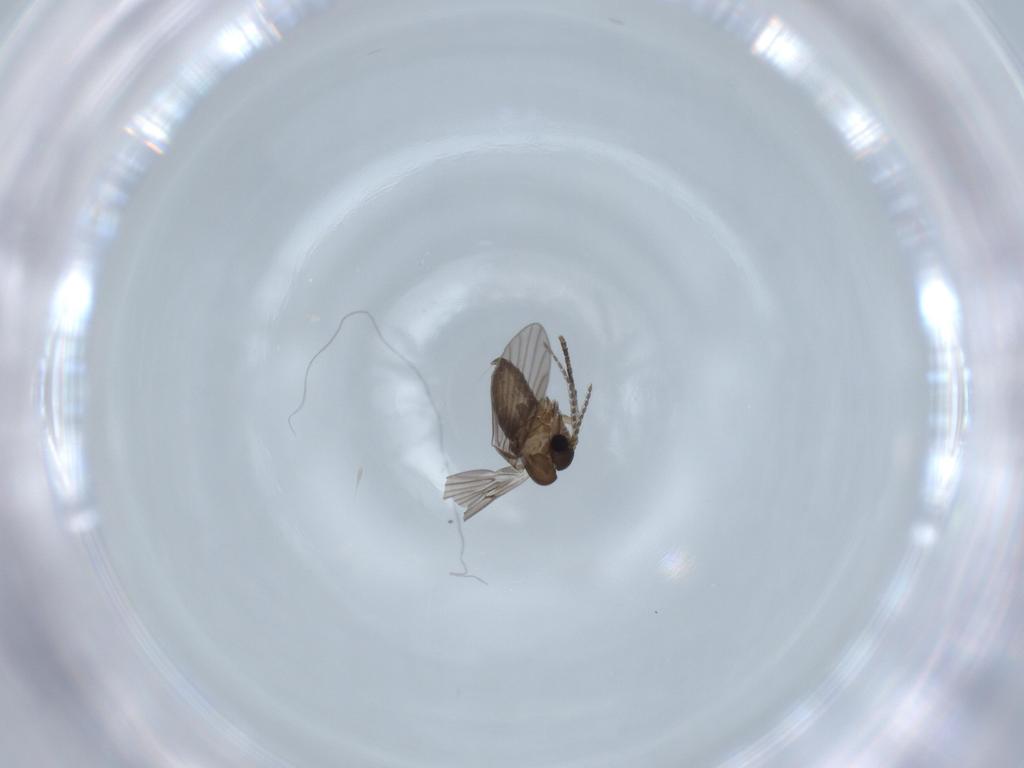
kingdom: Animalia
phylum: Arthropoda
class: Insecta
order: Diptera
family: Psychodidae
